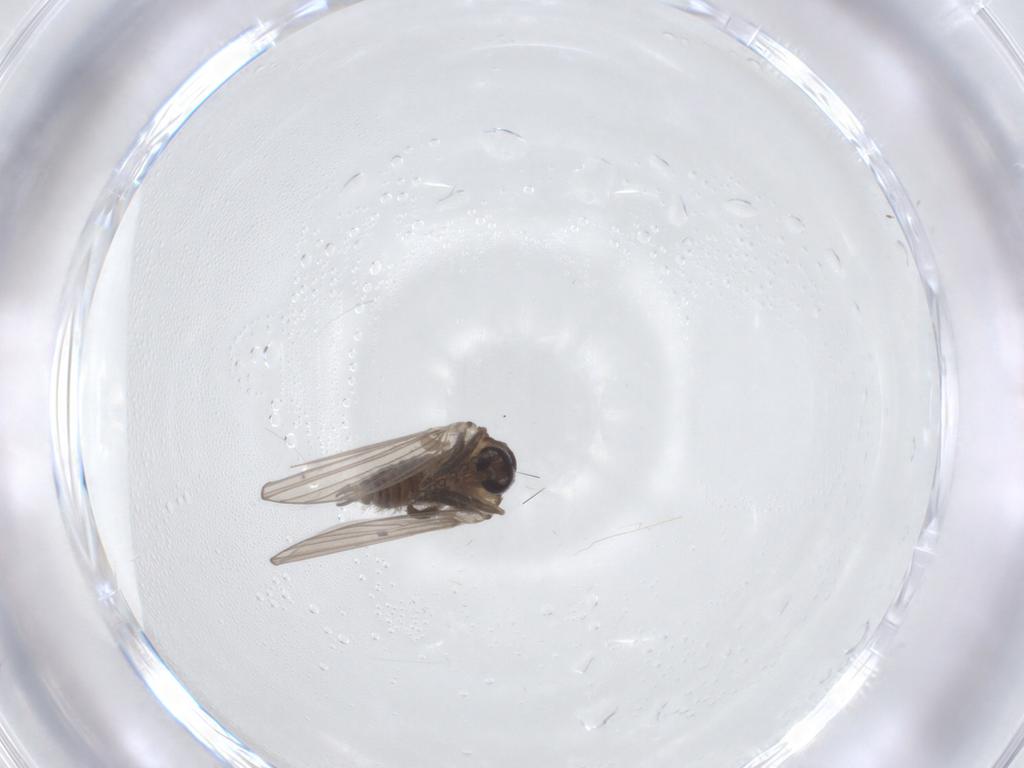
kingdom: Animalia
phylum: Arthropoda
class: Insecta
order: Diptera
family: Psychodidae
